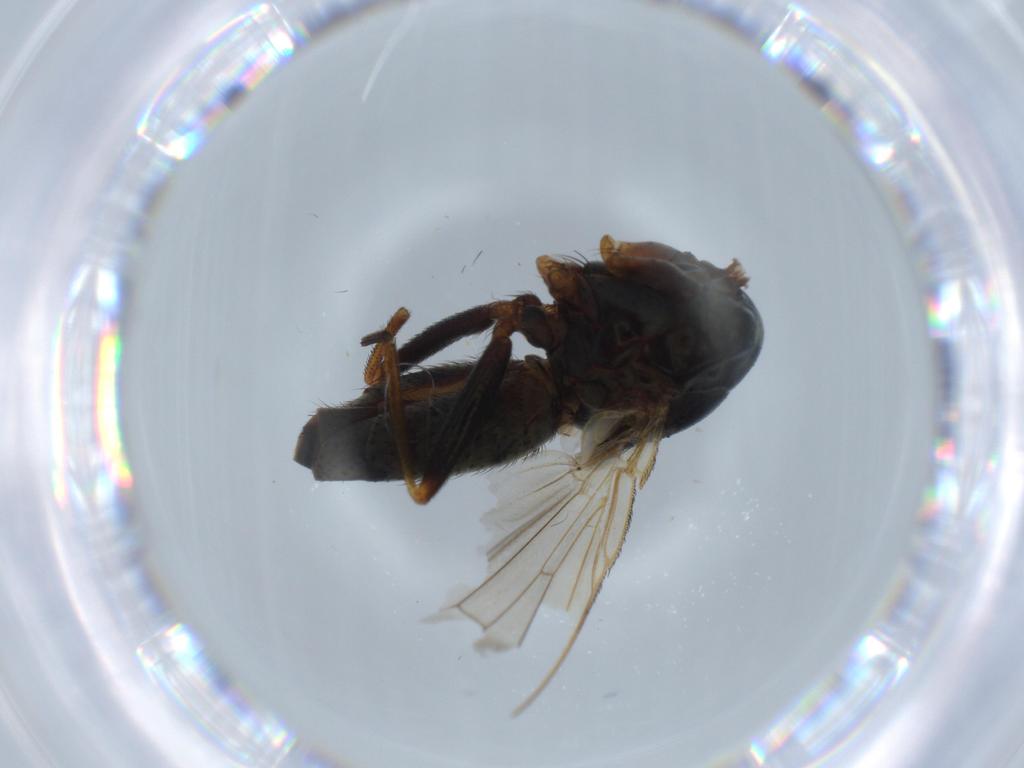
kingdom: Animalia
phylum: Arthropoda
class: Insecta
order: Diptera
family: Muscidae
